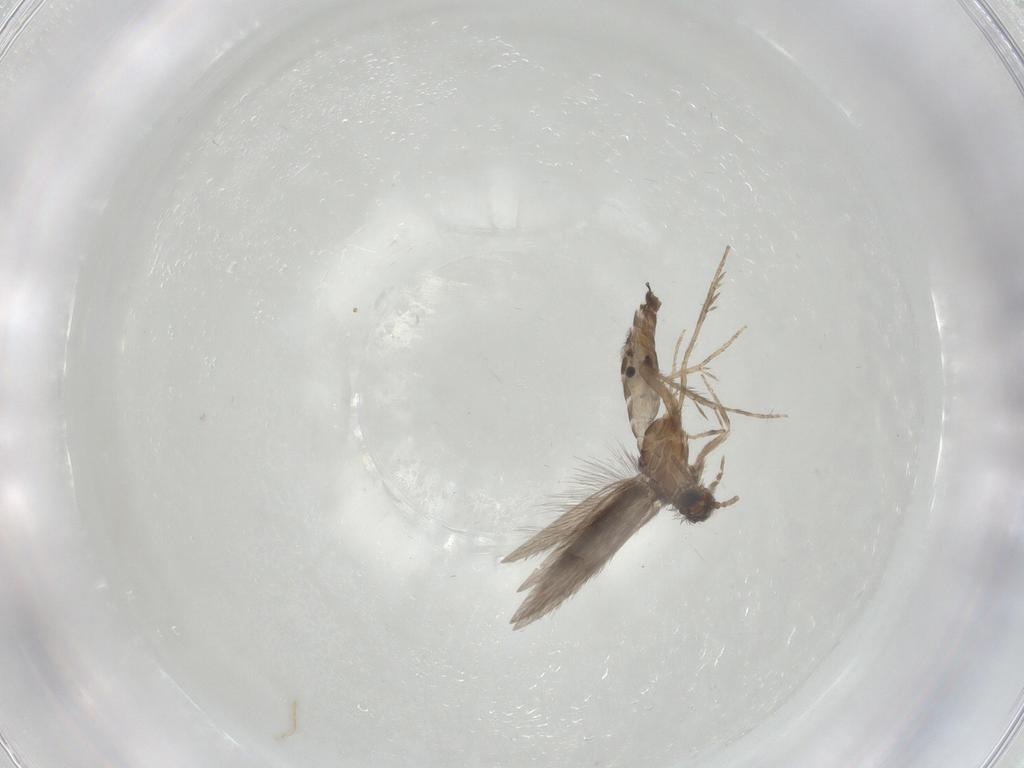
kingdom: Animalia
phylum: Arthropoda
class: Insecta
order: Trichoptera
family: Hydroptilidae
